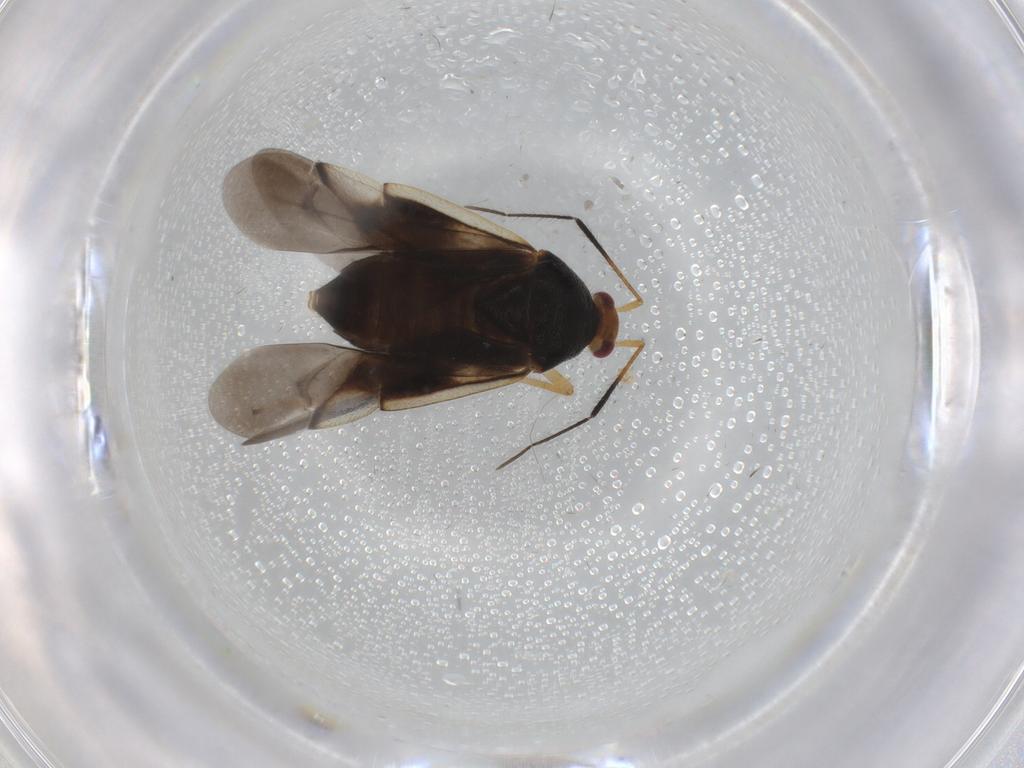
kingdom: Animalia
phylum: Arthropoda
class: Insecta
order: Hemiptera
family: Miridae
